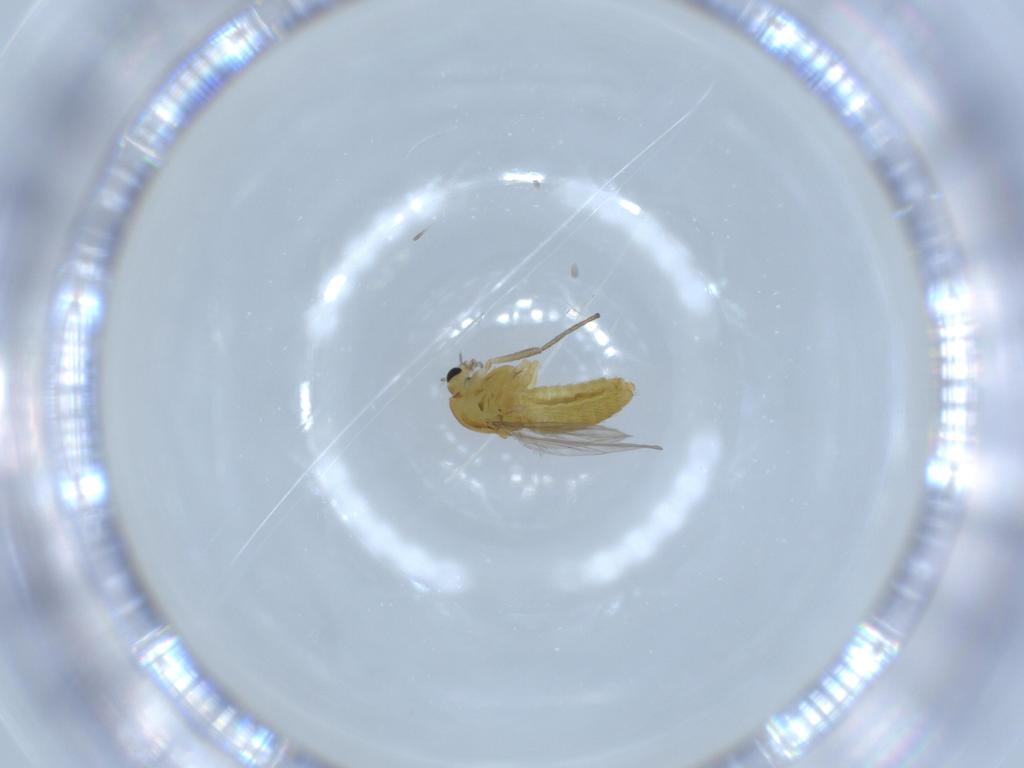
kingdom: Animalia
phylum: Arthropoda
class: Insecta
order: Diptera
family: Chironomidae
